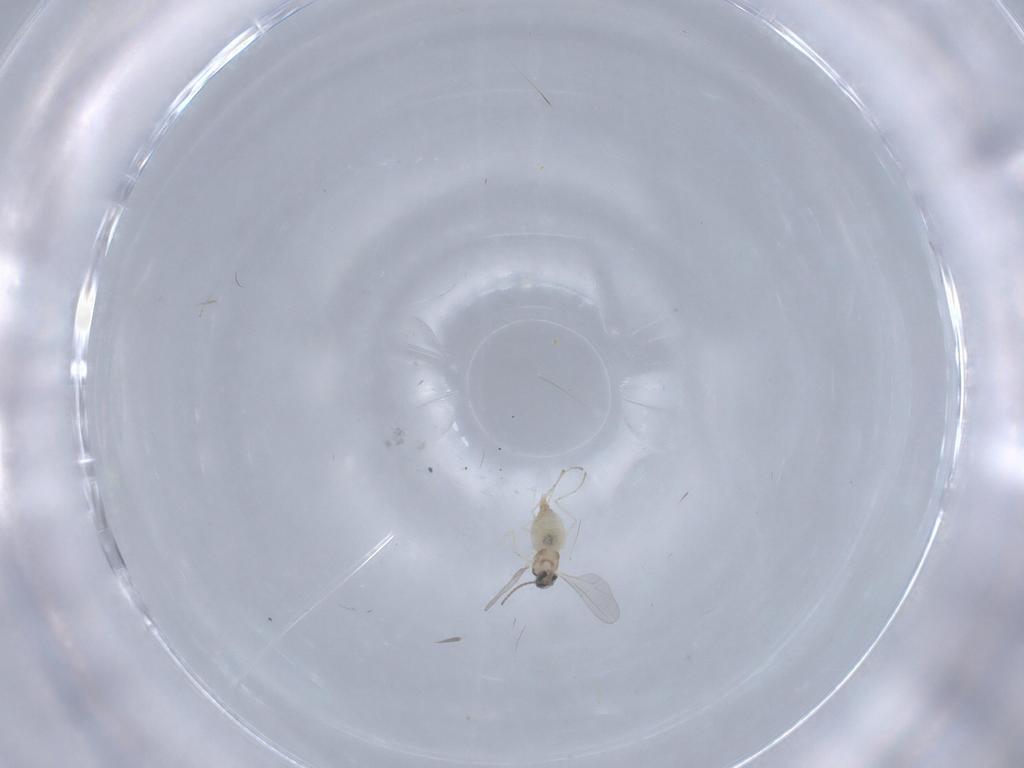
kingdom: Animalia
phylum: Arthropoda
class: Insecta
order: Diptera
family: Cecidomyiidae
